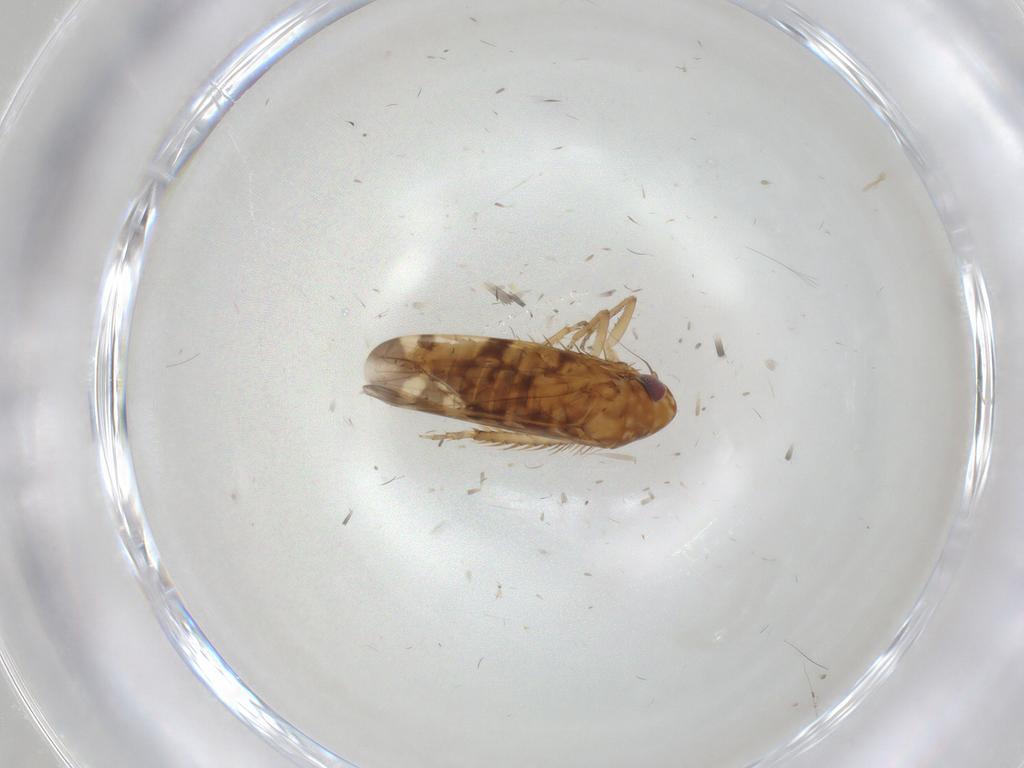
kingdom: Animalia
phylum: Arthropoda
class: Insecta
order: Hemiptera
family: Cicadellidae
